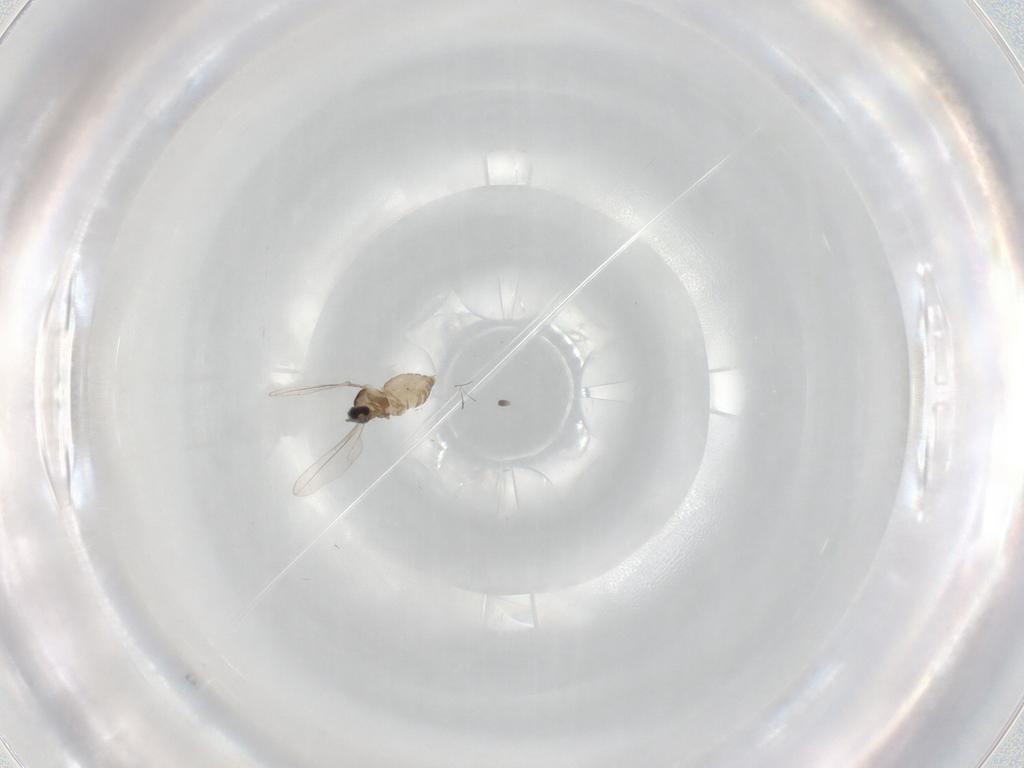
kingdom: Animalia
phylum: Arthropoda
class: Insecta
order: Diptera
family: Cecidomyiidae
